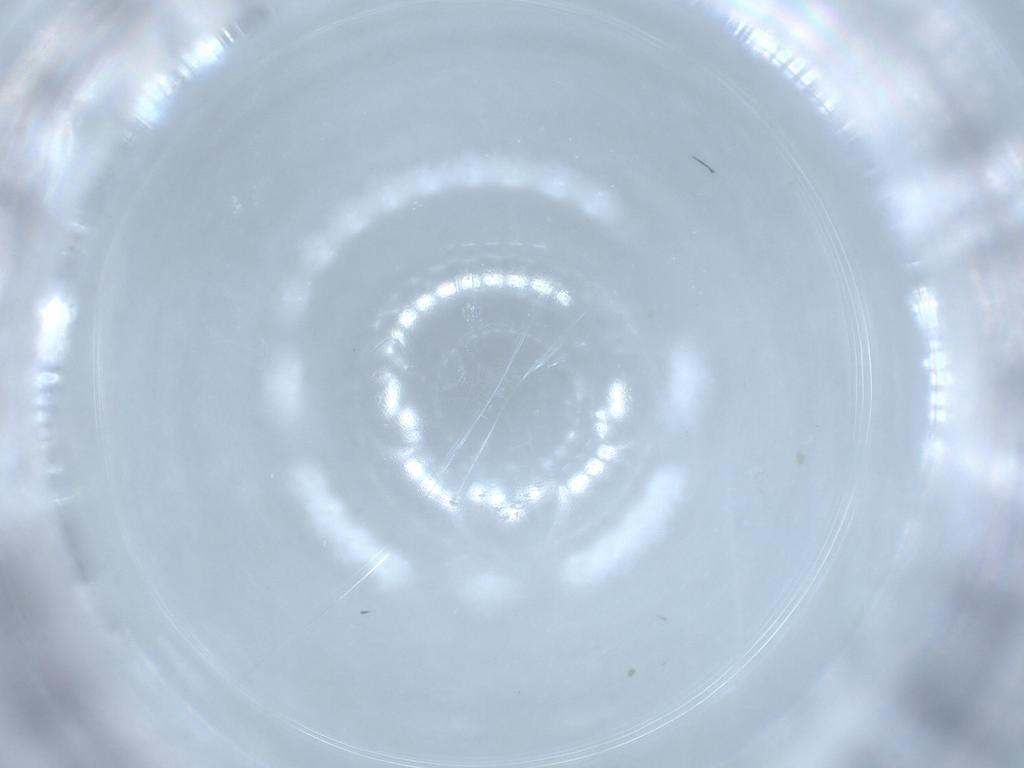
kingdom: Animalia
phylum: Arthropoda
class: Insecta
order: Diptera
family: Cecidomyiidae
